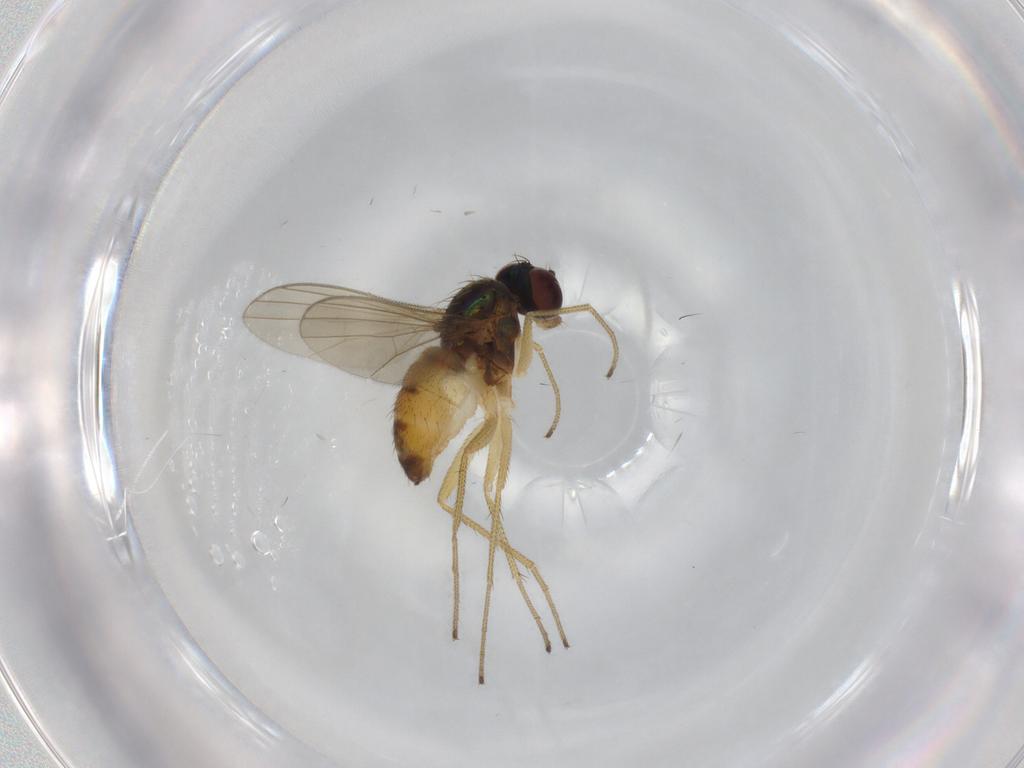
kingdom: Animalia
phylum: Arthropoda
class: Insecta
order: Diptera
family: Dolichopodidae
